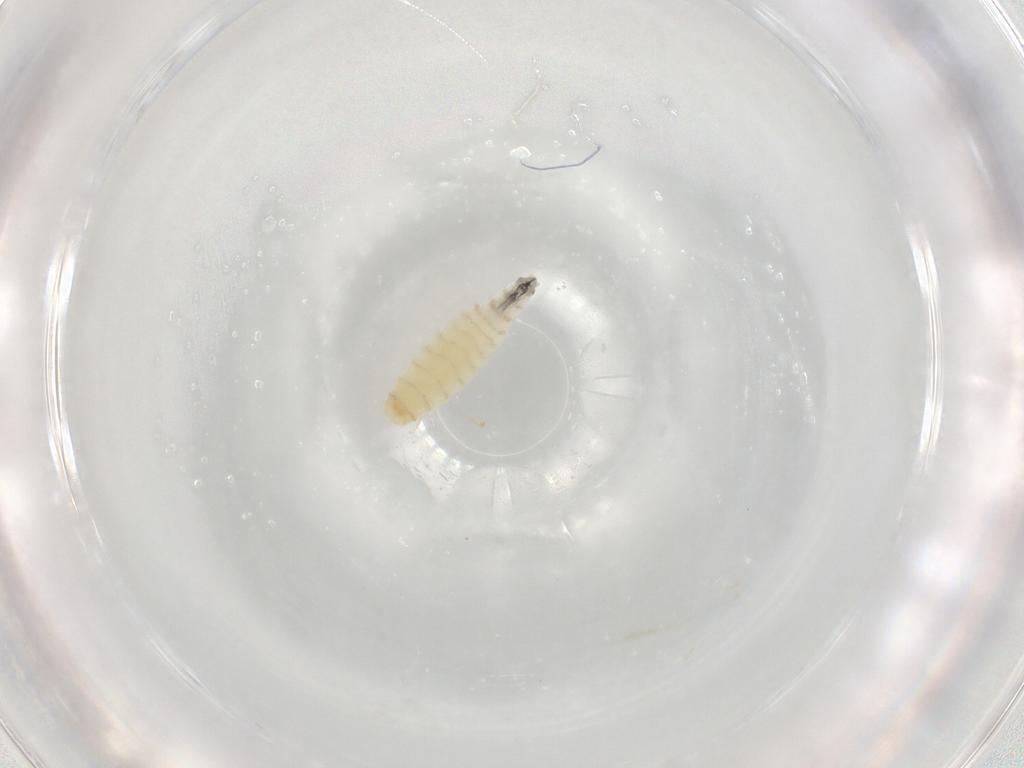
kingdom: Animalia
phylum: Arthropoda
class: Insecta
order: Diptera
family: Sarcophagidae
